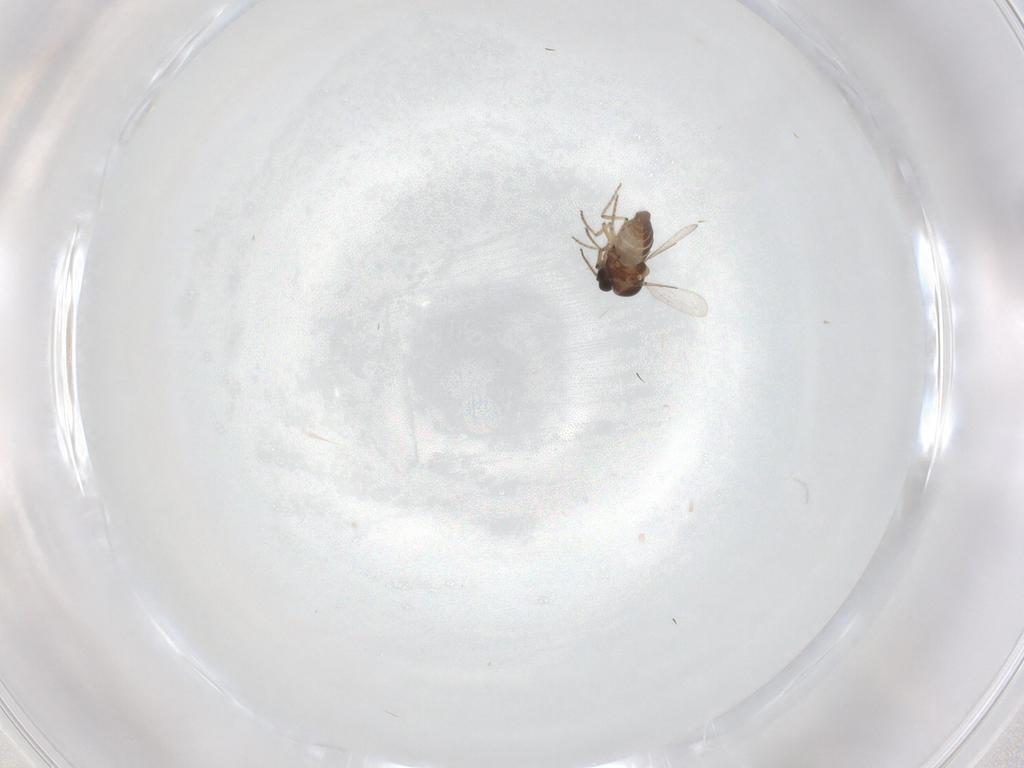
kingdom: Animalia
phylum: Arthropoda
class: Insecta
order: Diptera
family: Ceratopogonidae
